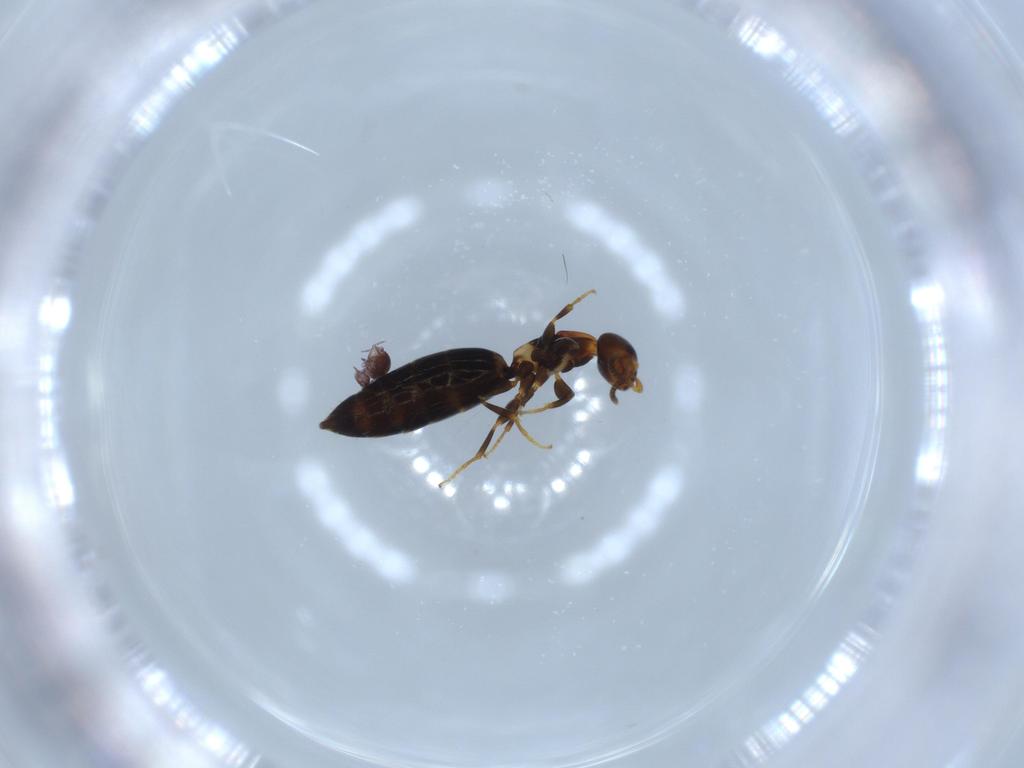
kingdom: Animalia
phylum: Arthropoda
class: Insecta
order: Hymenoptera
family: Bethylidae
